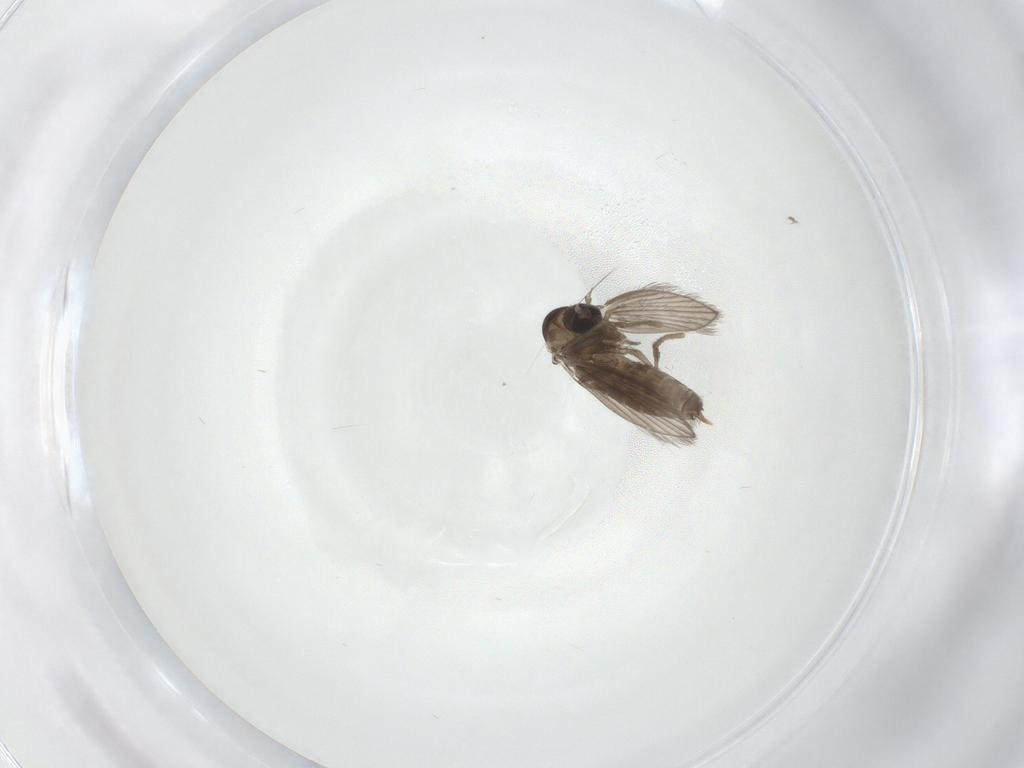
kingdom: Animalia
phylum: Arthropoda
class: Insecta
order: Diptera
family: Psychodidae
